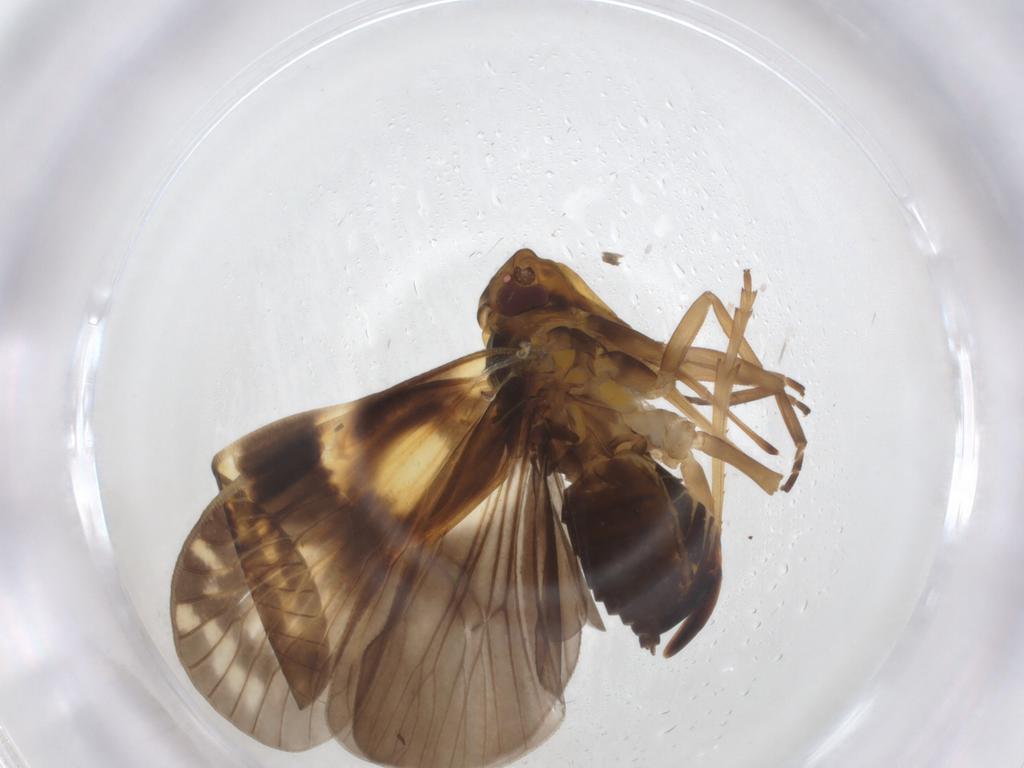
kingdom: Animalia
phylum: Arthropoda
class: Insecta
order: Hemiptera
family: Cixiidae
